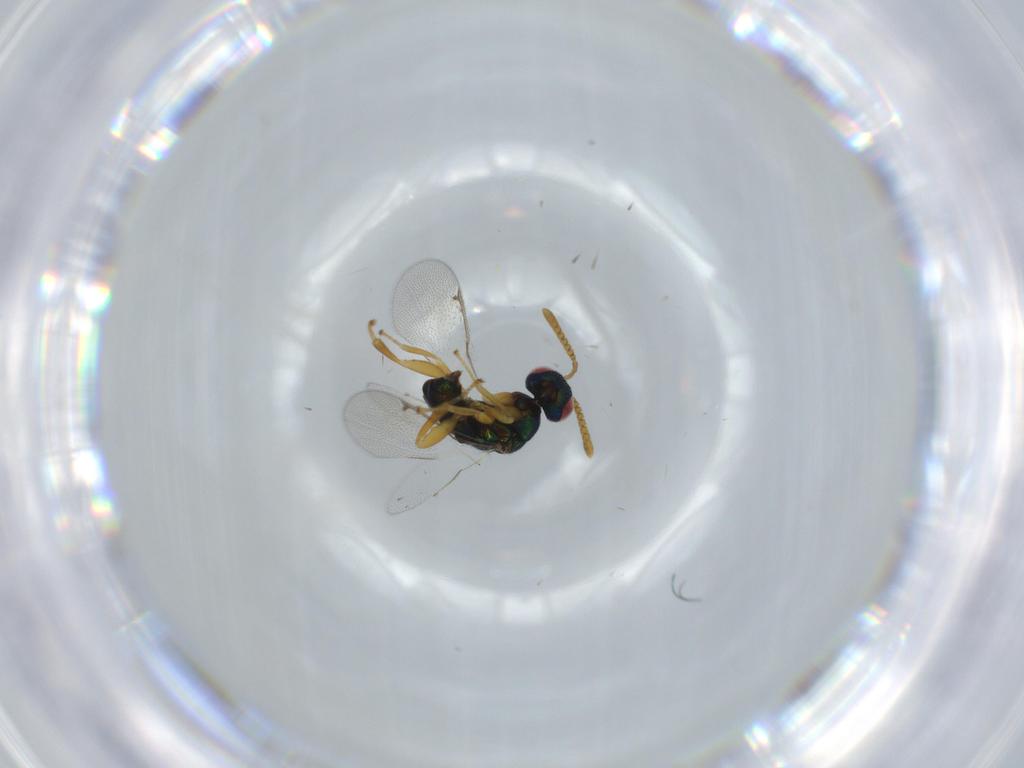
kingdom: Animalia
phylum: Arthropoda
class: Insecta
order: Hymenoptera
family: Torymidae
